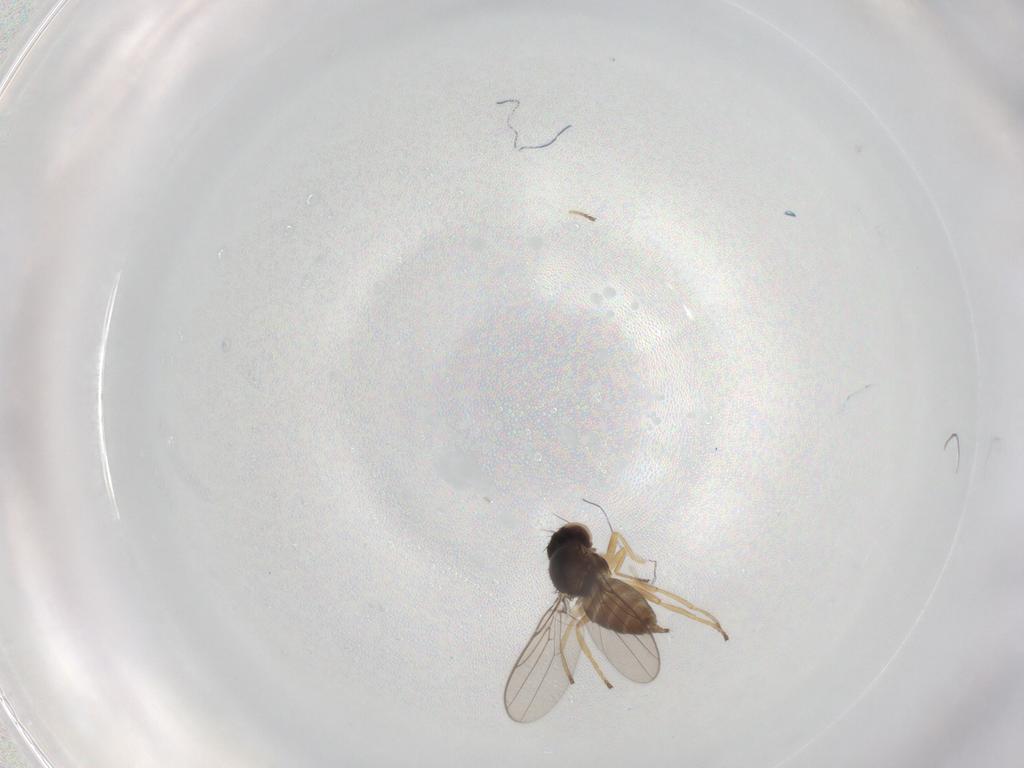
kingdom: Animalia
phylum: Arthropoda
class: Insecta
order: Diptera
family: Chloropidae
